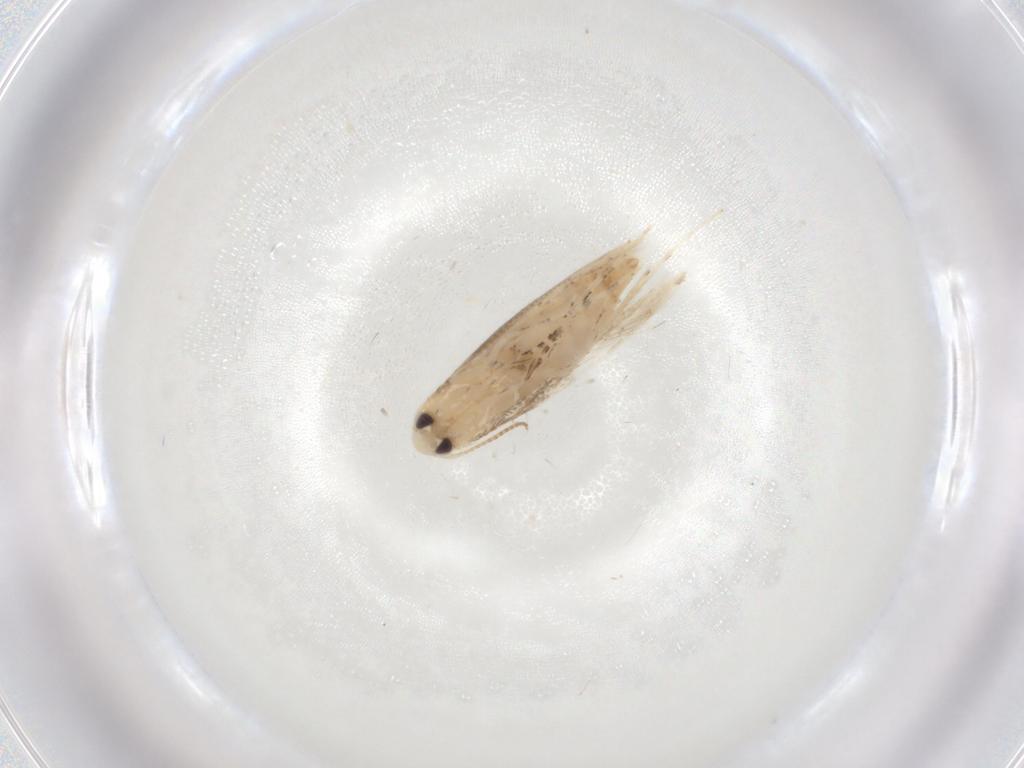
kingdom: Animalia
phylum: Arthropoda
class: Insecta
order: Lepidoptera
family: Gracillariidae
